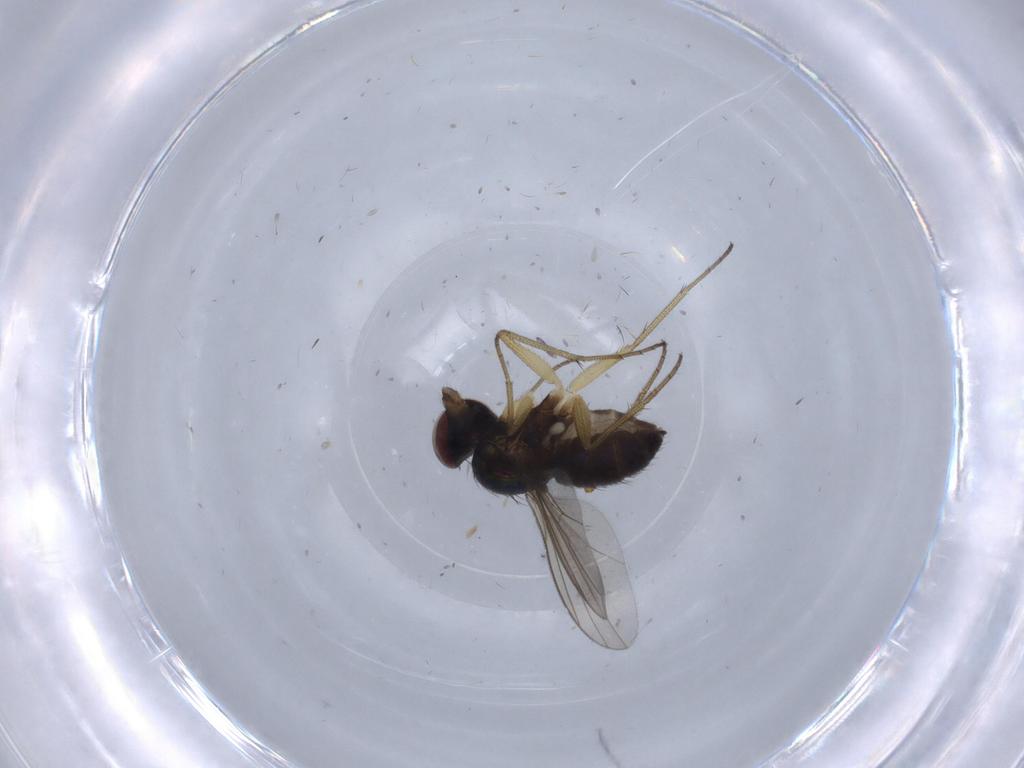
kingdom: Animalia
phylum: Arthropoda
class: Insecta
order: Diptera
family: Dolichopodidae
